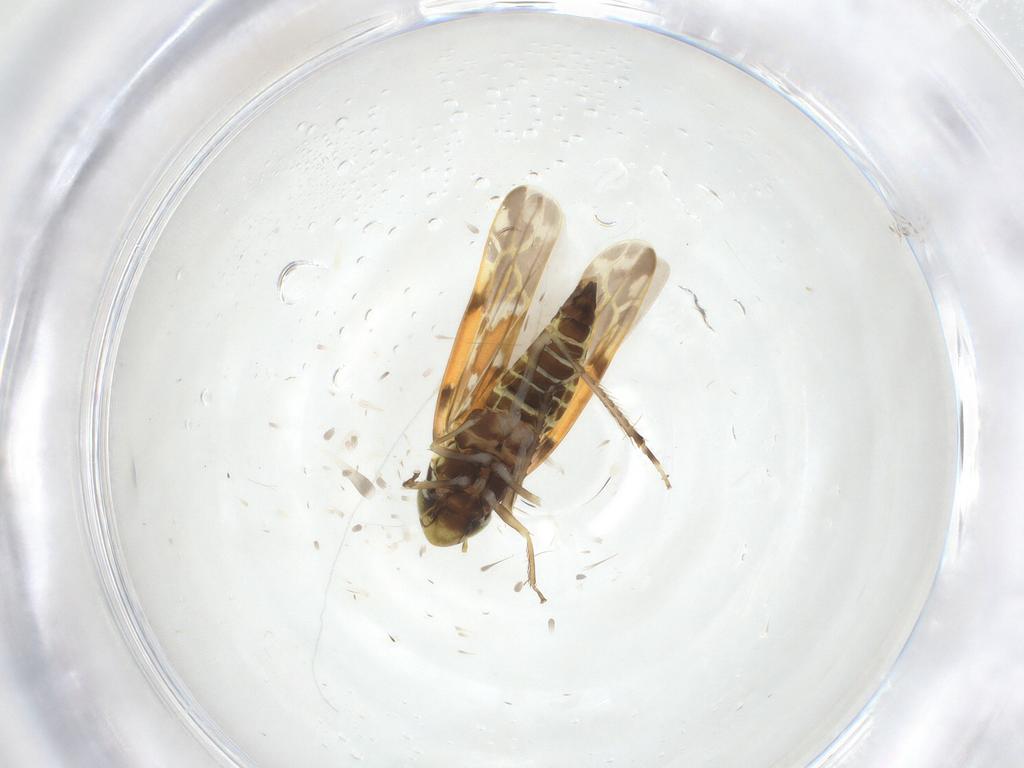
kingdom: Animalia
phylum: Arthropoda
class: Insecta
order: Hemiptera
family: Cicadellidae
